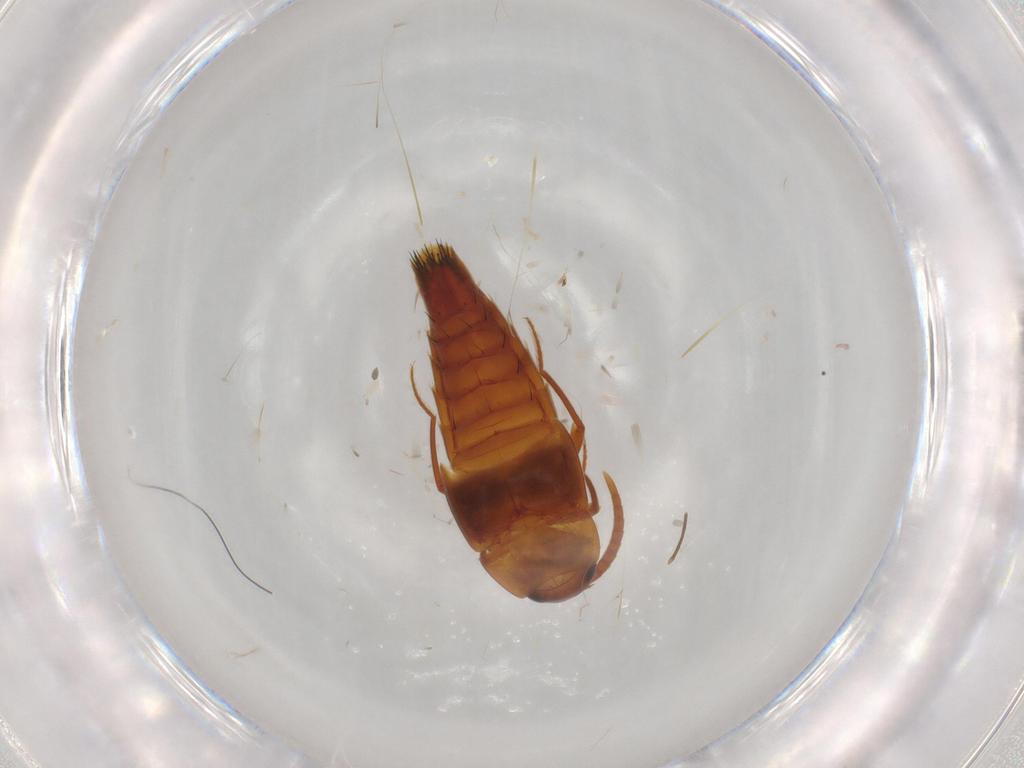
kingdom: Animalia
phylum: Arthropoda
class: Insecta
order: Coleoptera
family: Staphylinidae
